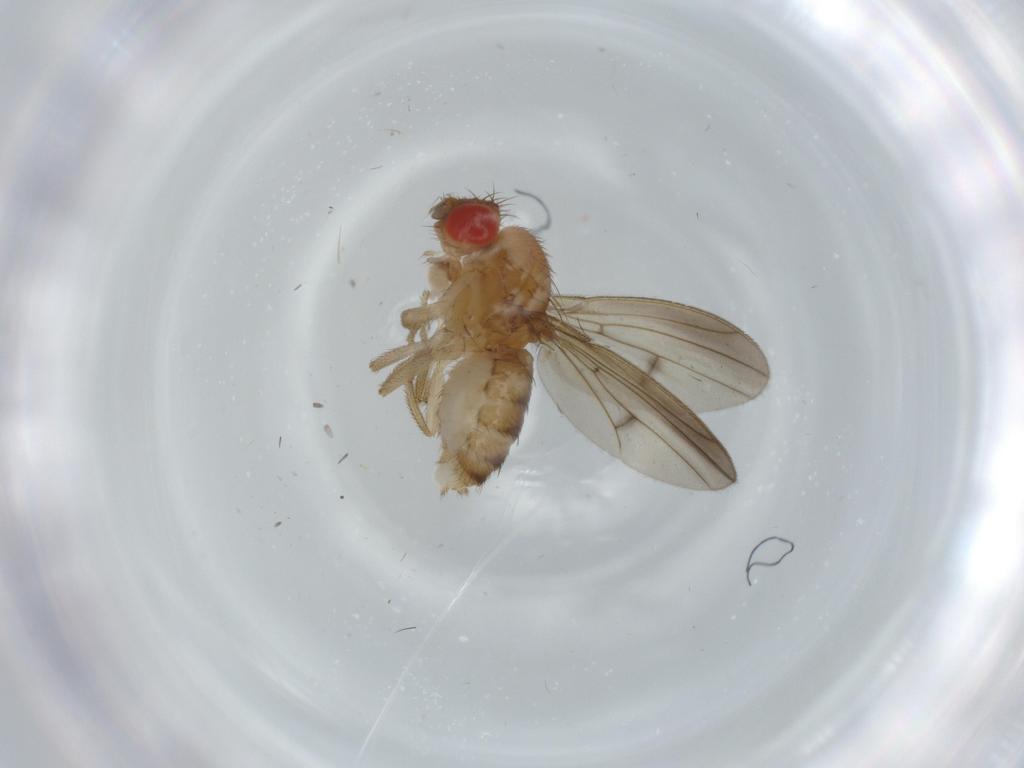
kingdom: Animalia
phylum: Arthropoda
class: Insecta
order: Diptera
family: Drosophilidae
